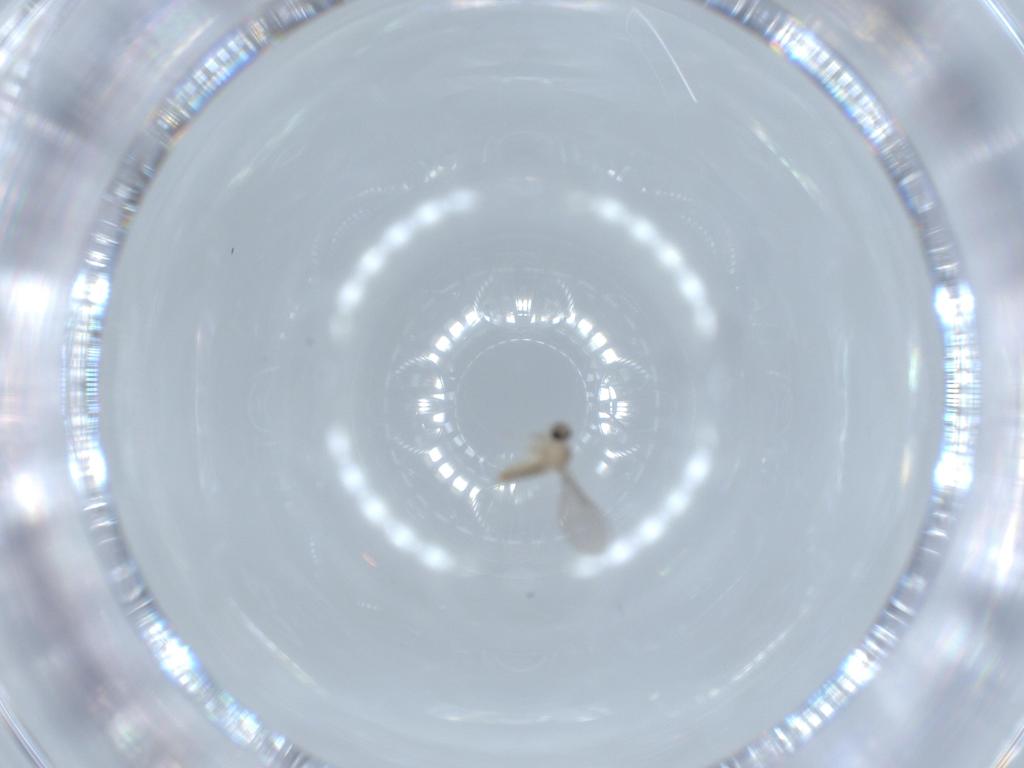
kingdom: Animalia
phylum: Arthropoda
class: Insecta
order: Diptera
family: Cecidomyiidae
